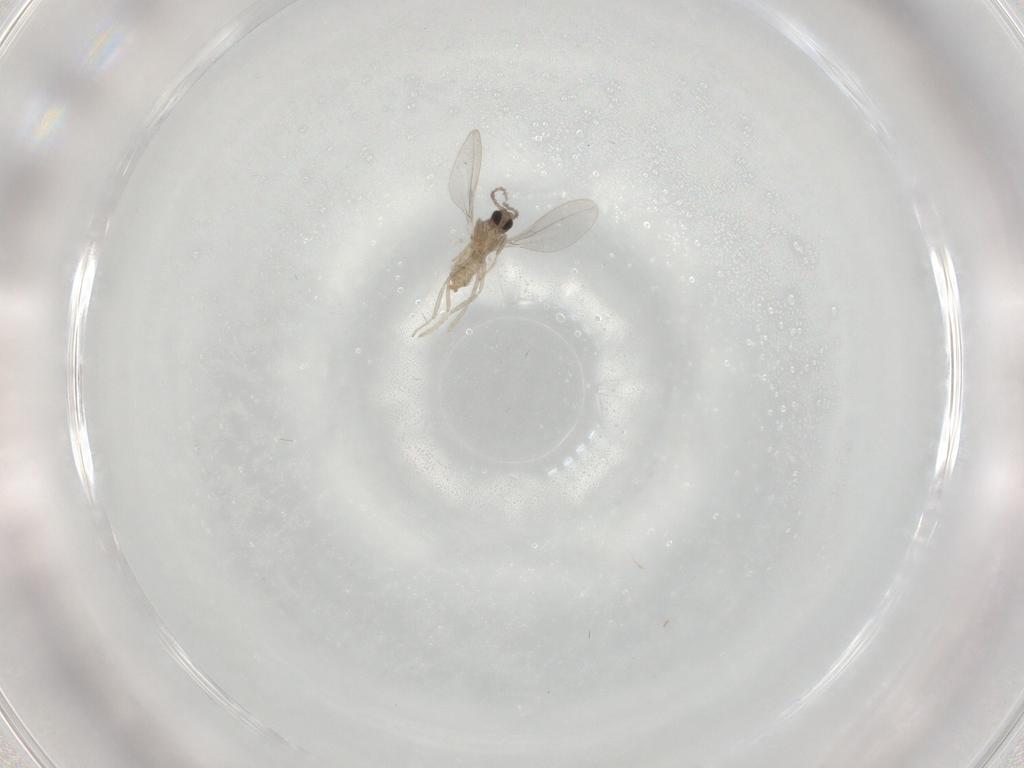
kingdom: Animalia
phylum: Arthropoda
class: Insecta
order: Diptera
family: Cecidomyiidae
